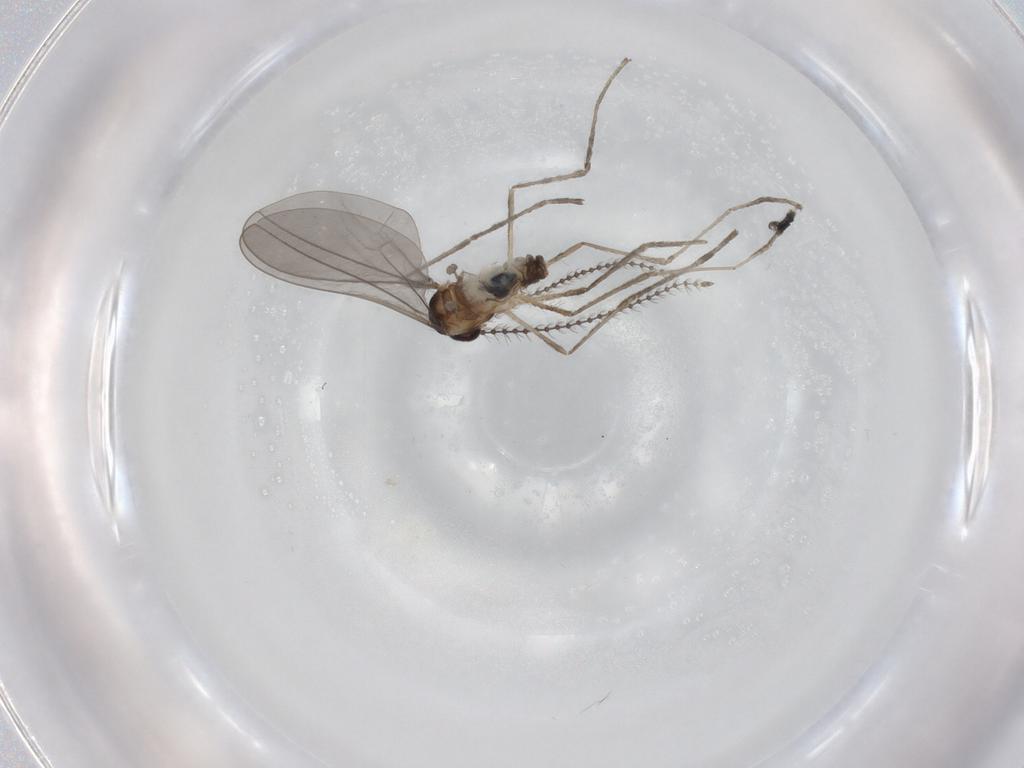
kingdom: Animalia
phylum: Arthropoda
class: Insecta
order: Diptera
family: Cecidomyiidae
